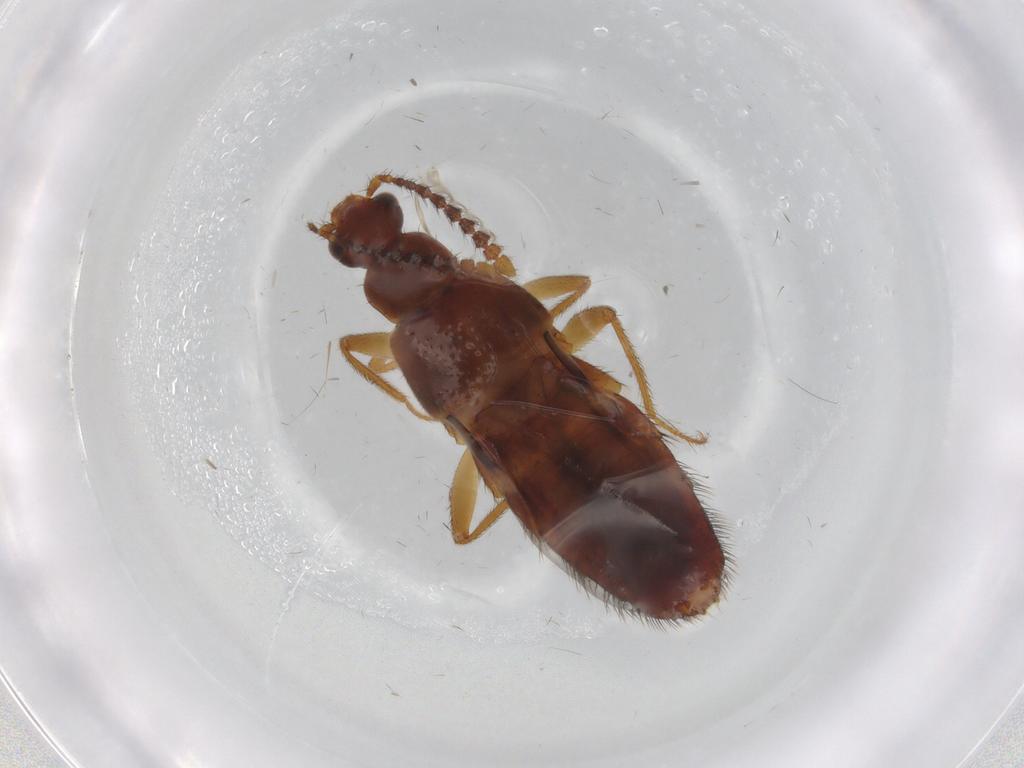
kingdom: Animalia
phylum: Arthropoda
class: Insecta
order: Coleoptera
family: Staphylinidae
